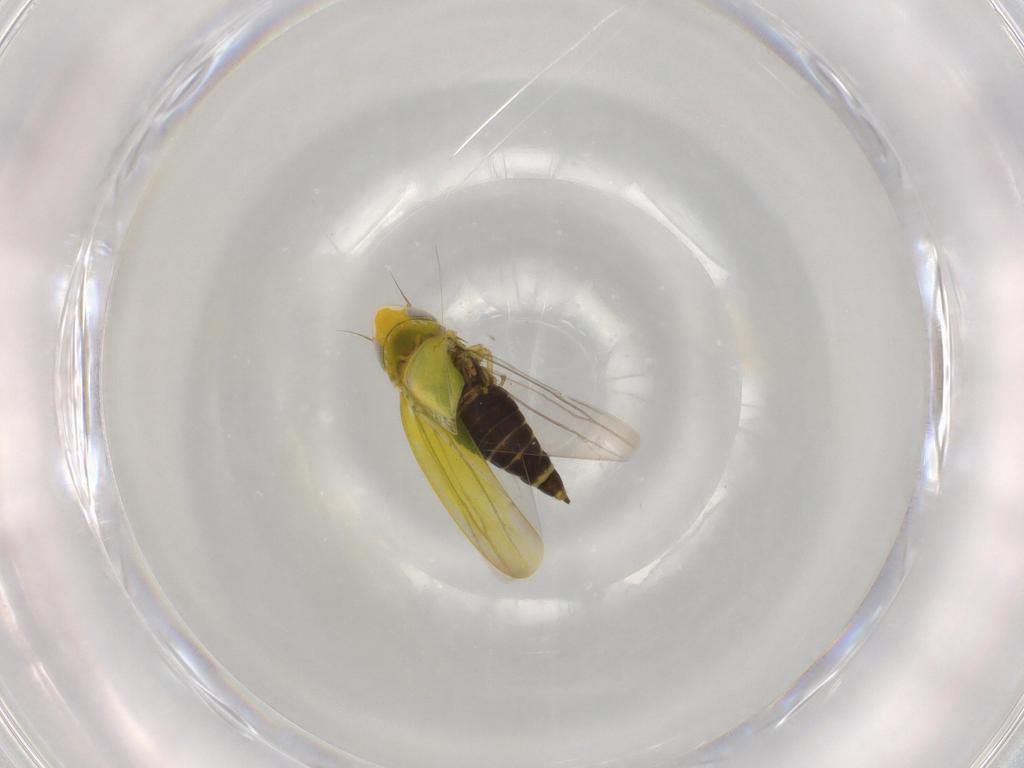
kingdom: Animalia
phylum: Arthropoda
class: Insecta
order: Hemiptera
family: Cicadellidae
